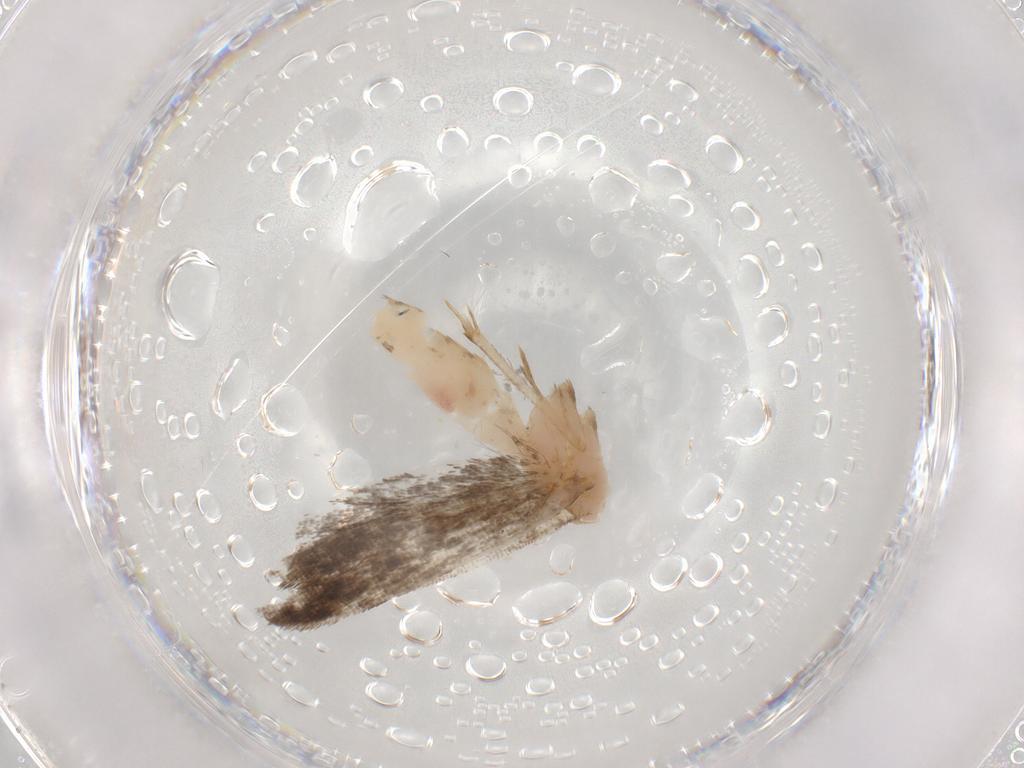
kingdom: Animalia
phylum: Arthropoda
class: Insecta
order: Lepidoptera
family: Gelechiidae
